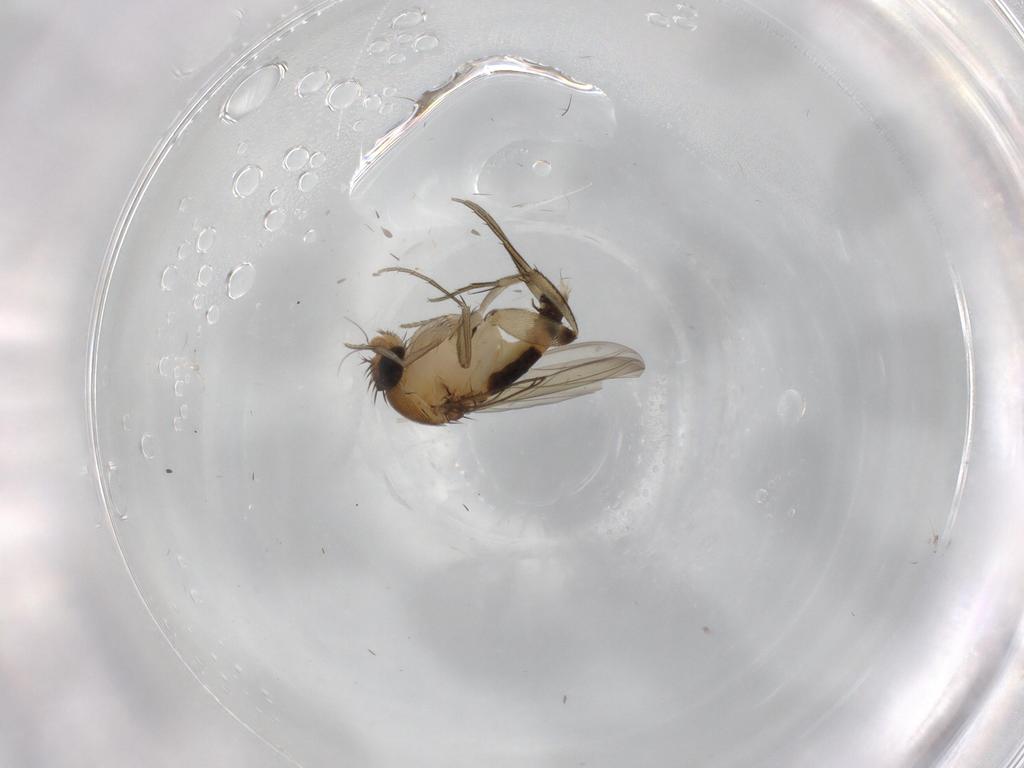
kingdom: Animalia
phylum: Arthropoda
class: Insecta
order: Diptera
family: Phoridae
